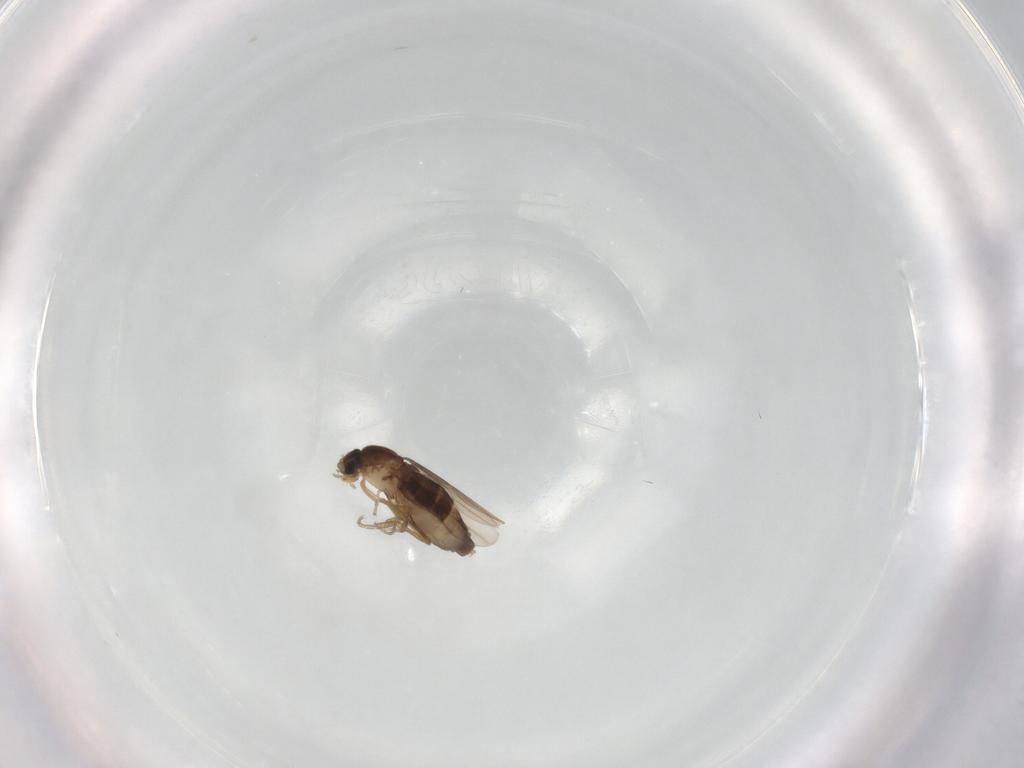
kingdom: Animalia
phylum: Arthropoda
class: Insecta
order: Diptera
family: Phoridae
